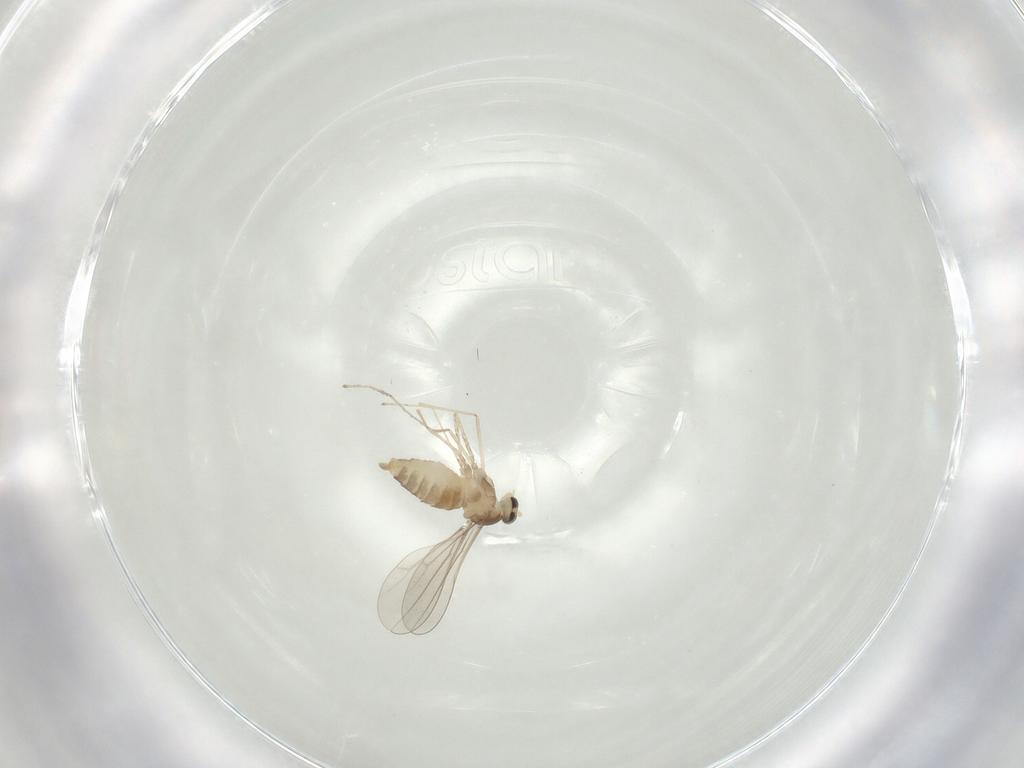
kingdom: Animalia
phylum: Arthropoda
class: Insecta
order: Diptera
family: Cecidomyiidae
